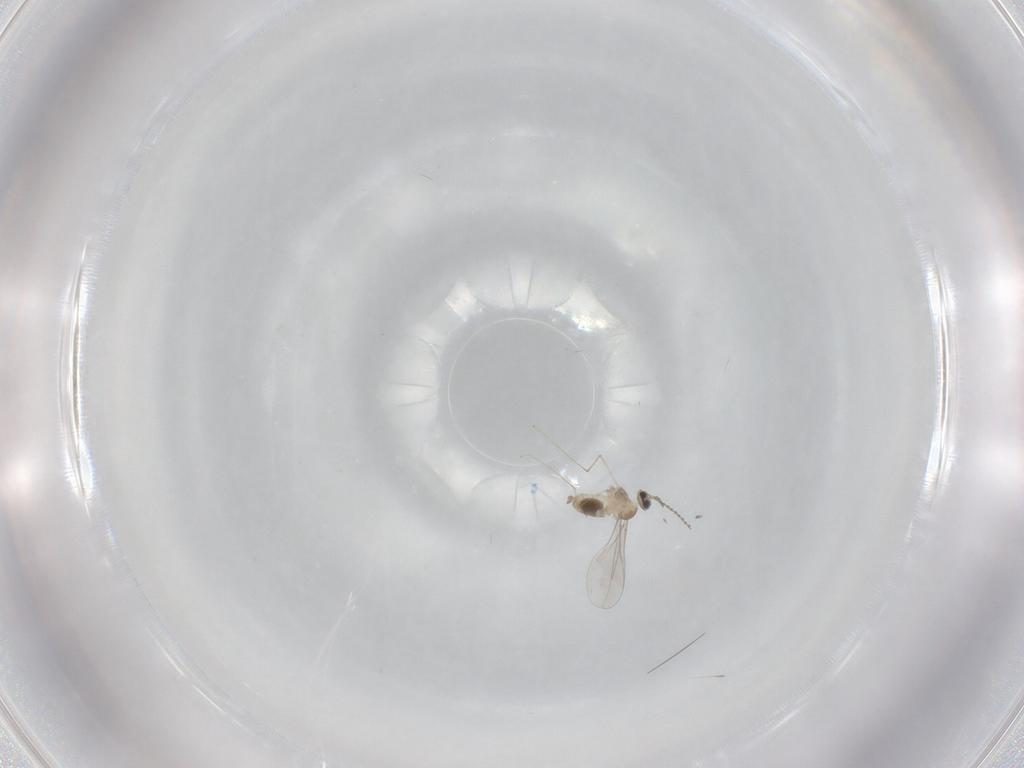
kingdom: Animalia
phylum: Arthropoda
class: Insecta
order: Diptera
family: Cecidomyiidae
